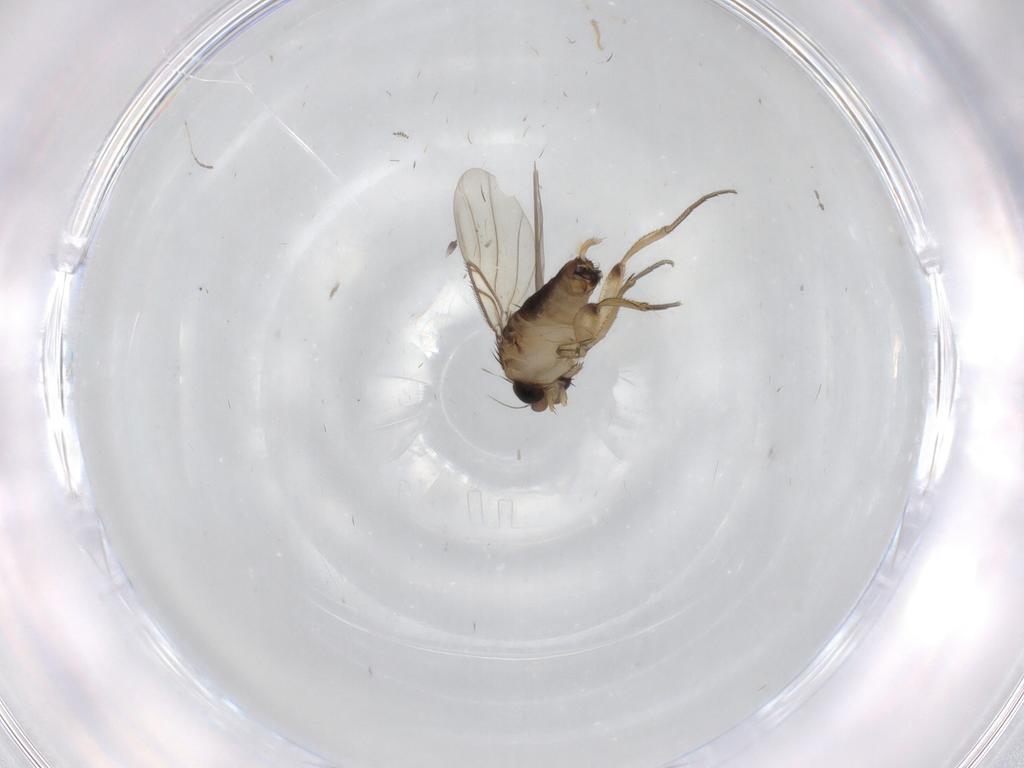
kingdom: Animalia
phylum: Arthropoda
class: Insecta
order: Diptera
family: Phoridae
